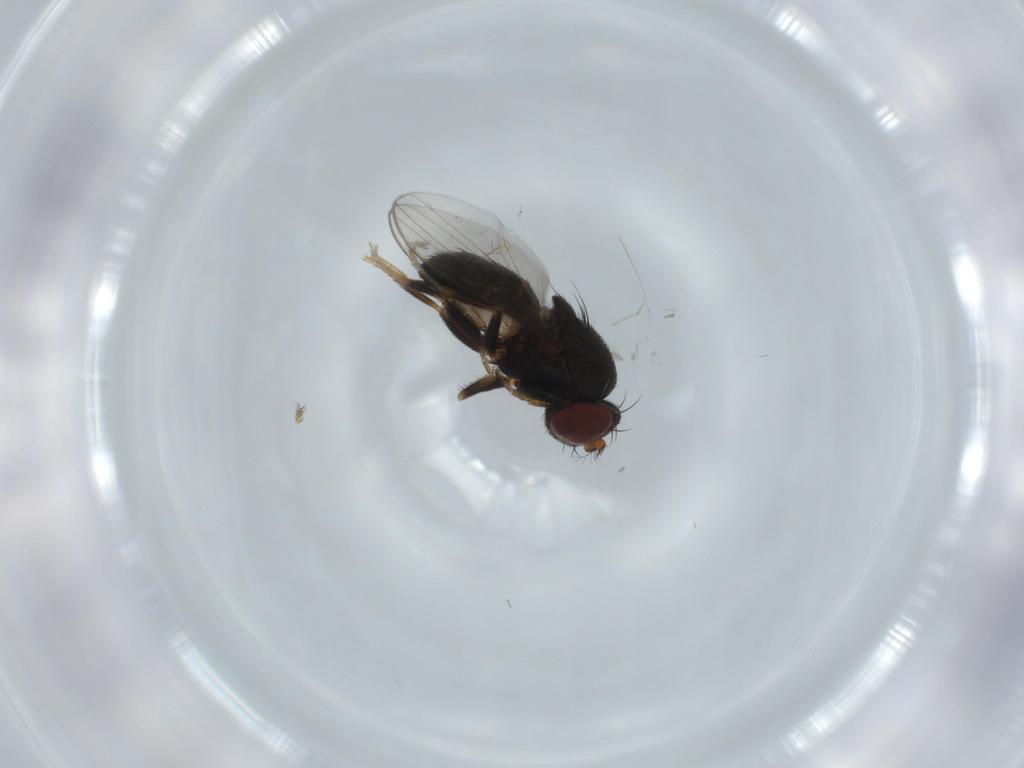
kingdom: Animalia
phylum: Arthropoda
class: Insecta
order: Diptera
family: Ephydridae
